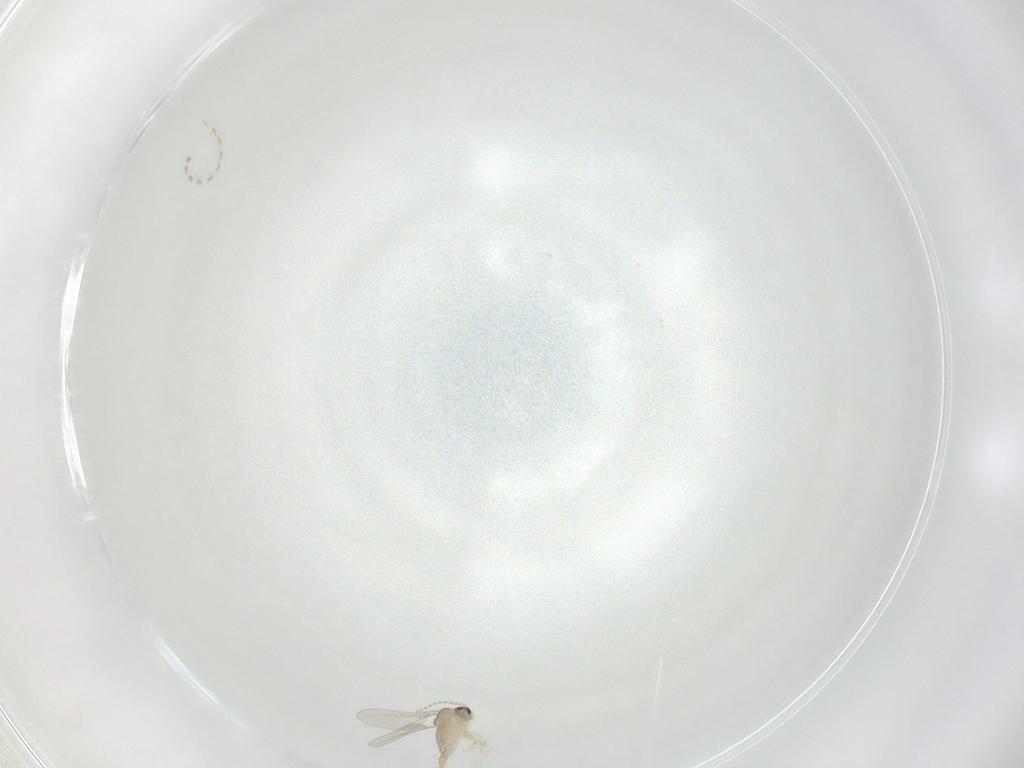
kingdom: Animalia
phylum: Arthropoda
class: Insecta
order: Diptera
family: Cecidomyiidae
